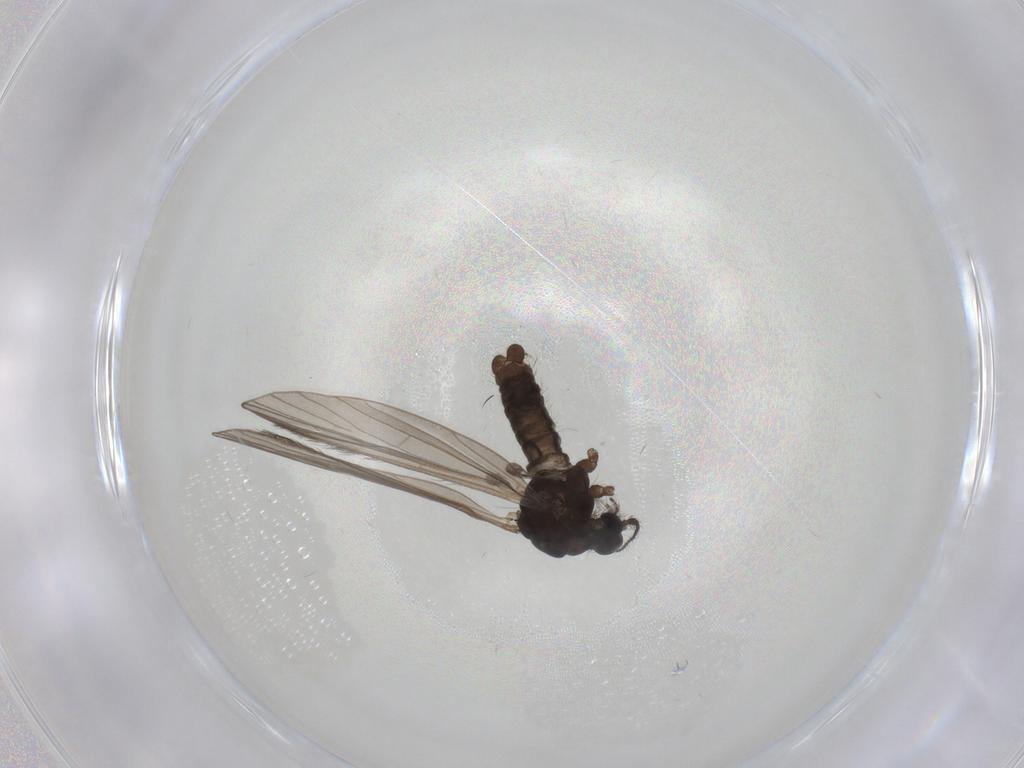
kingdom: Animalia
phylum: Arthropoda
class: Insecta
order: Diptera
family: Limoniidae
